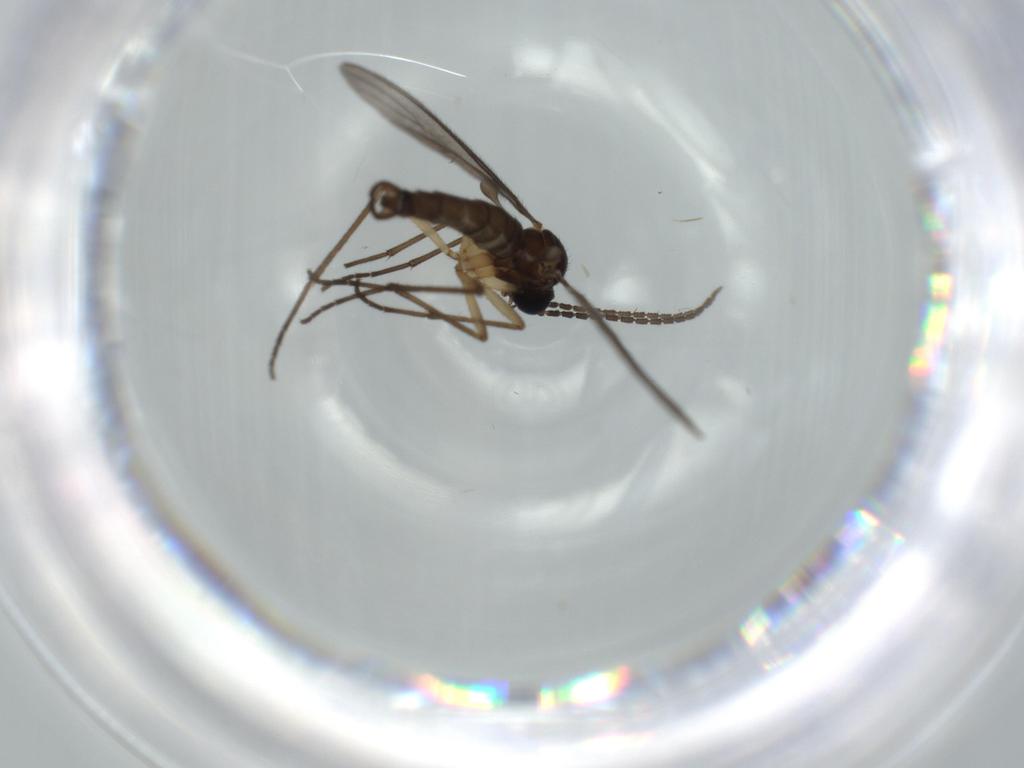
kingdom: Animalia
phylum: Arthropoda
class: Insecta
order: Diptera
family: Sciaridae
